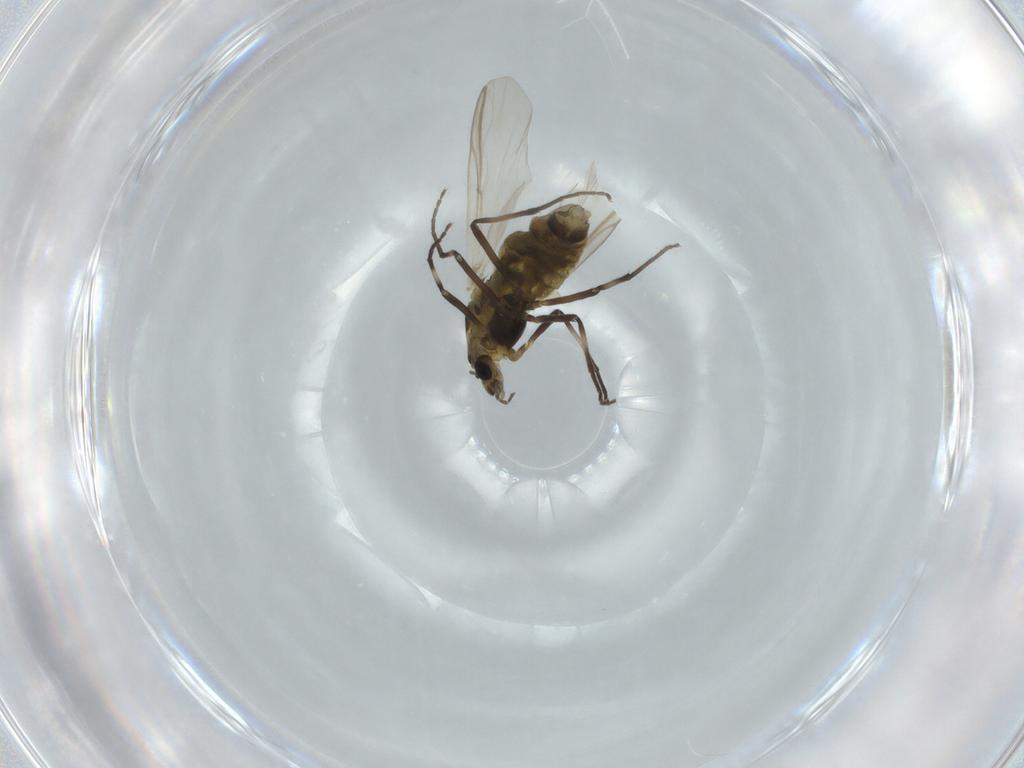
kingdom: Animalia
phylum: Arthropoda
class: Insecta
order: Diptera
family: Mycetophilidae
